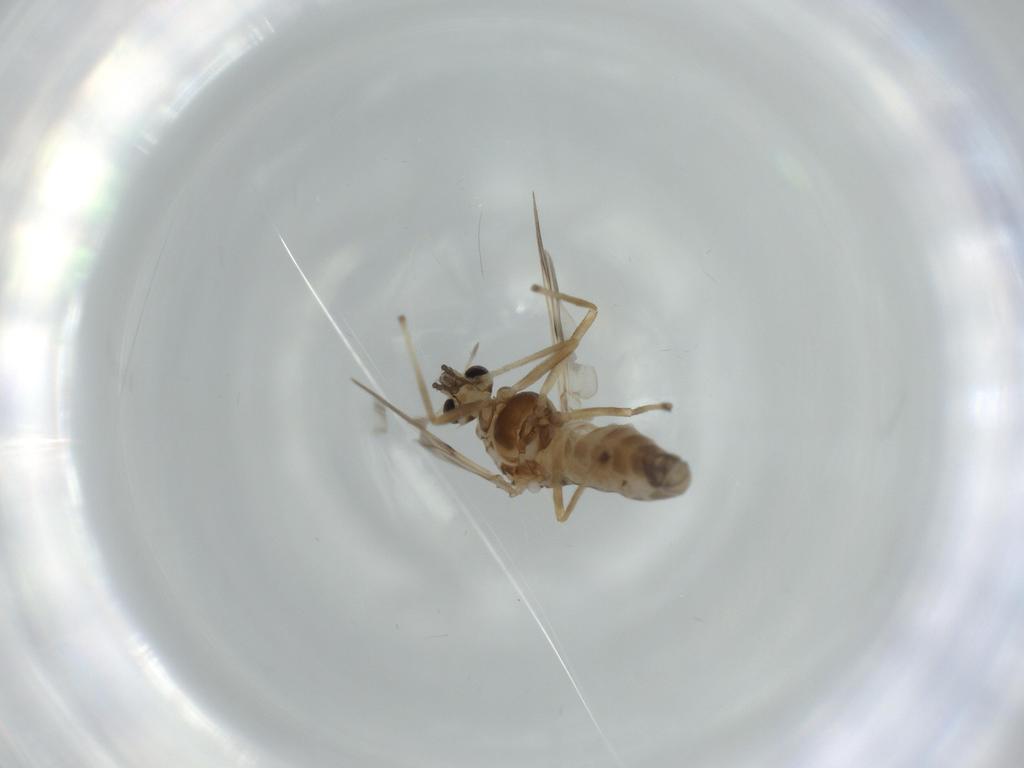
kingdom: Animalia
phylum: Arthropoda
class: Insecta
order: Diptera
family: Chironomidae
